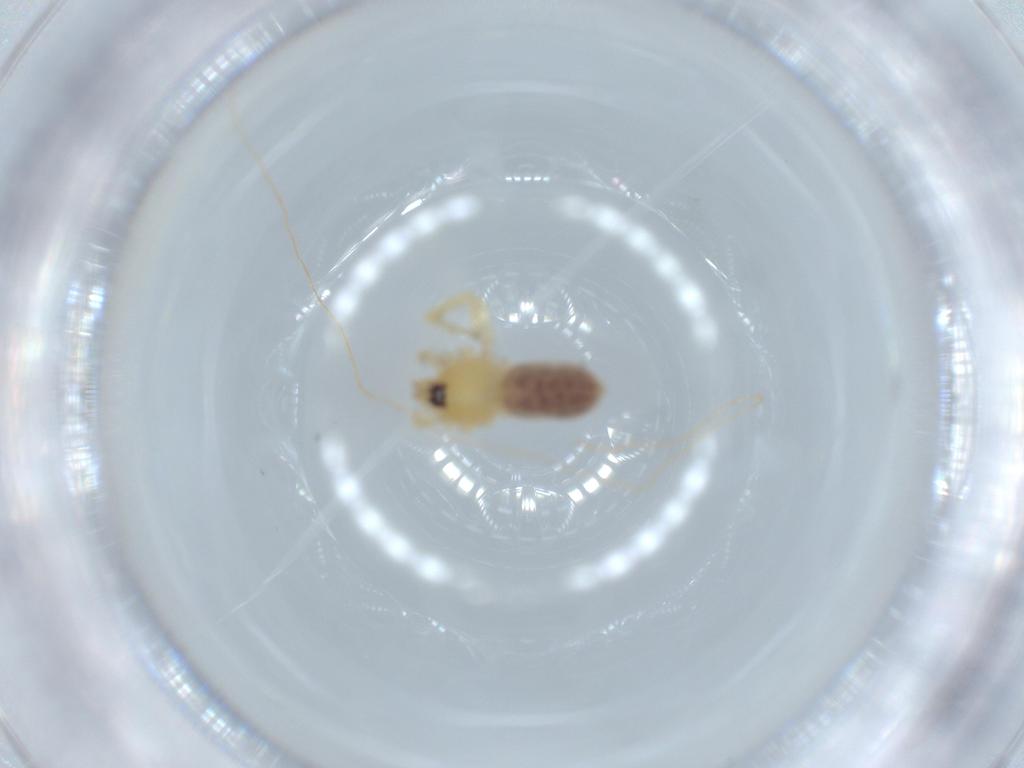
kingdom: Animalia
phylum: Arthropoda
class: Arachnida
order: Araneae
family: Oonopidae
